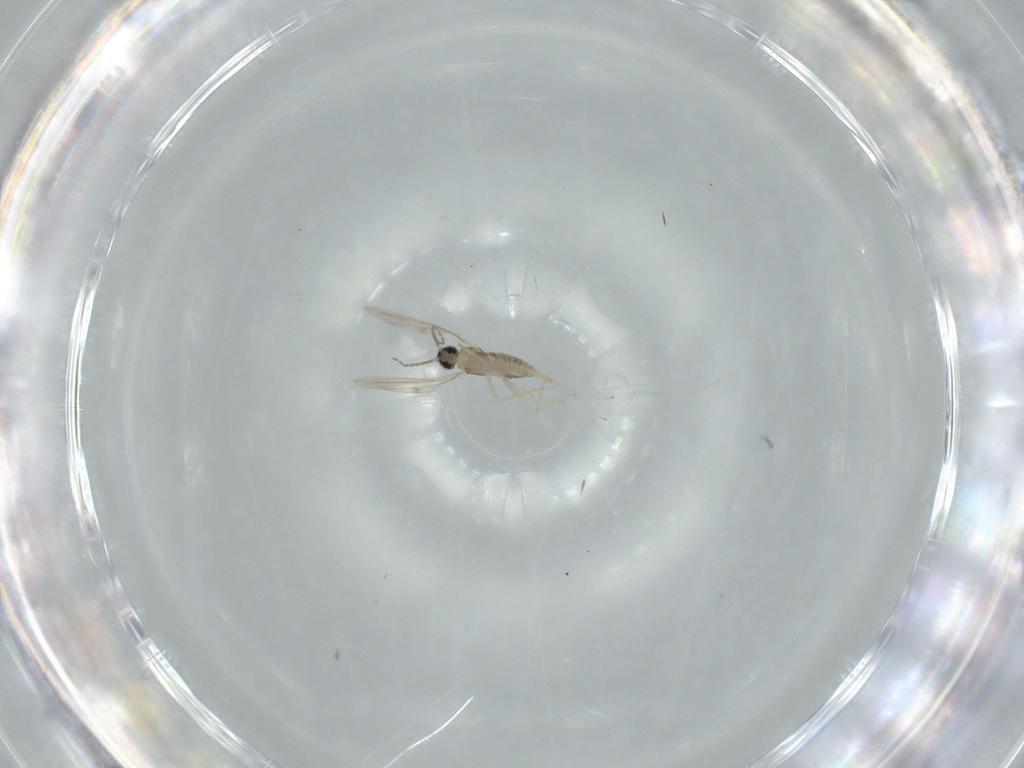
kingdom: Animalia
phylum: Arthropoda
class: Insecta
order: Diptera
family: Cecidomyiidae
